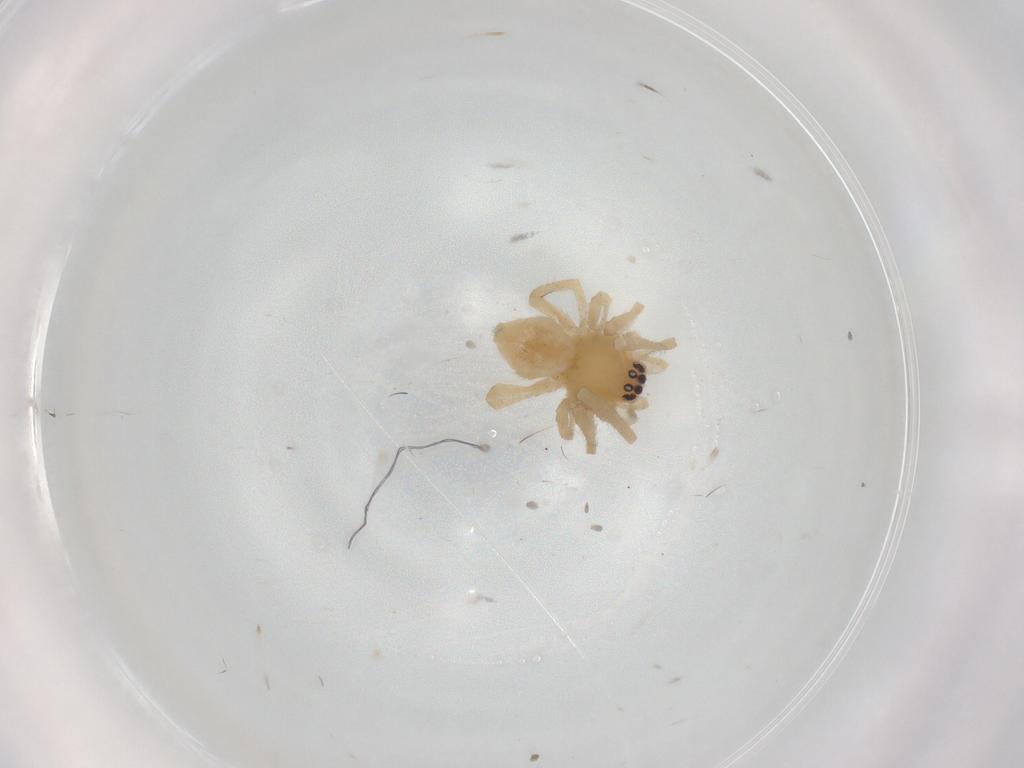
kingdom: Animalia
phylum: Arthropoda
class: Arachnida
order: Araneae
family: Cheiracanthiidae
